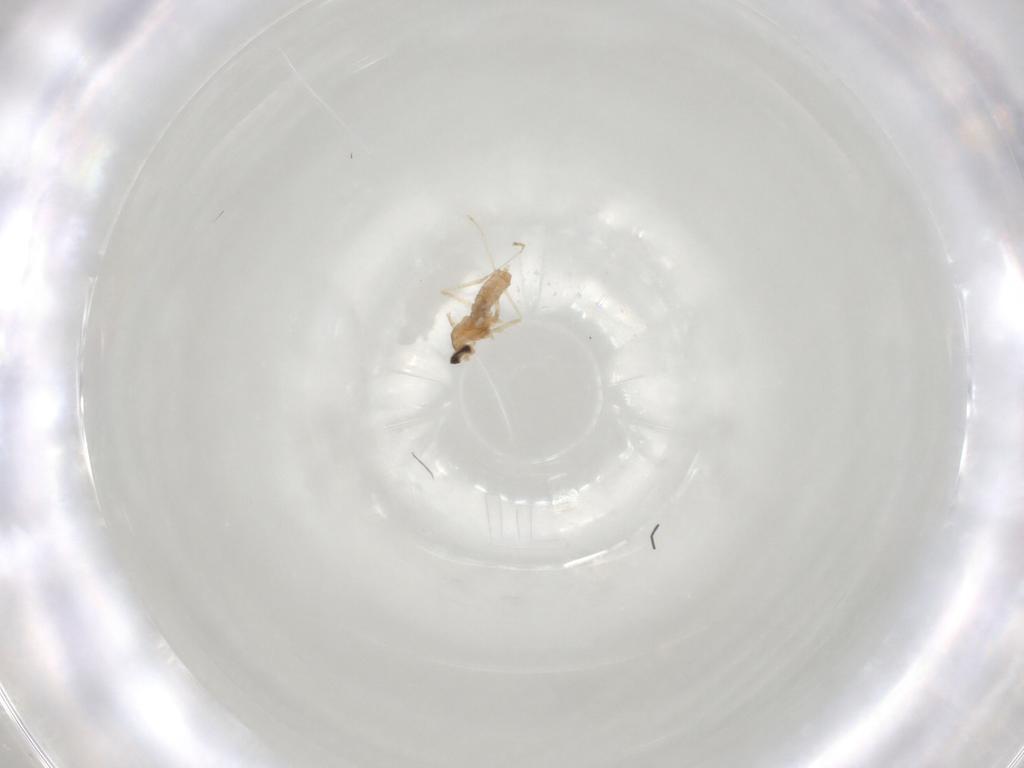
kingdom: Animalia
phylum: Arthropoda
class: Insecta
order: Diptera
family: Cecidomyiidae
